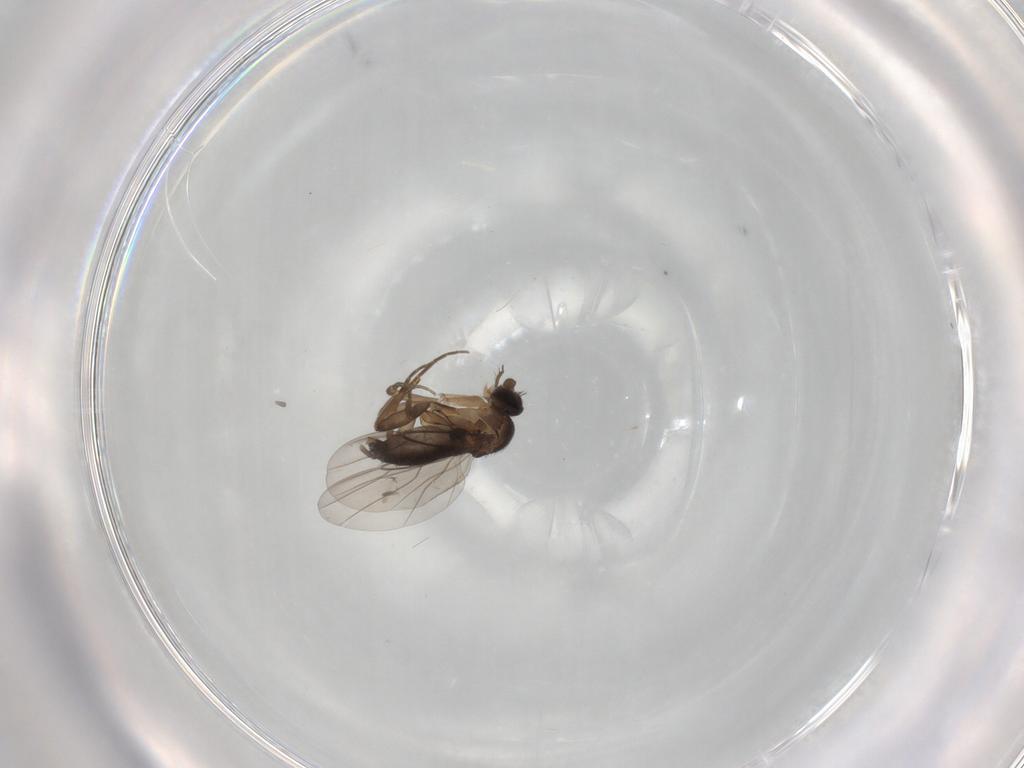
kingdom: Animalia
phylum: Arthropoda
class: Insecta
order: Diptera
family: Phoridae
